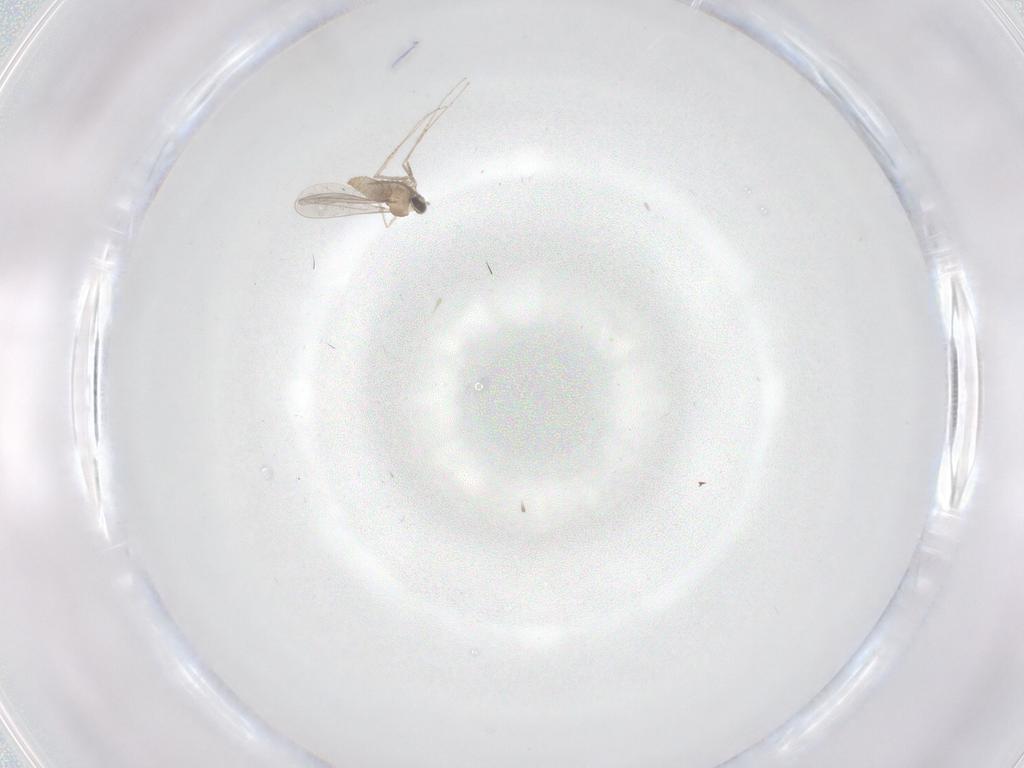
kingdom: Animalia
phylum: Arthropoda
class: Insecta
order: Diptera
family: Cecidomyiidae
